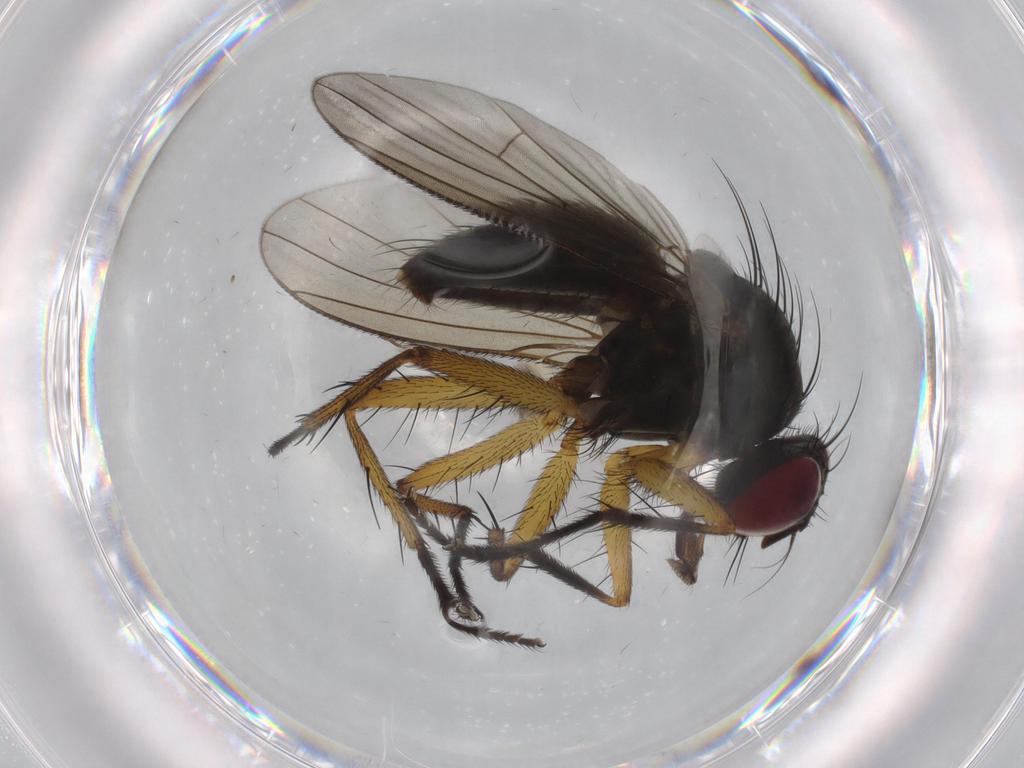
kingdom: Animalia
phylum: Arthropoda
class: Insecta
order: Diptera
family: Muscidae
